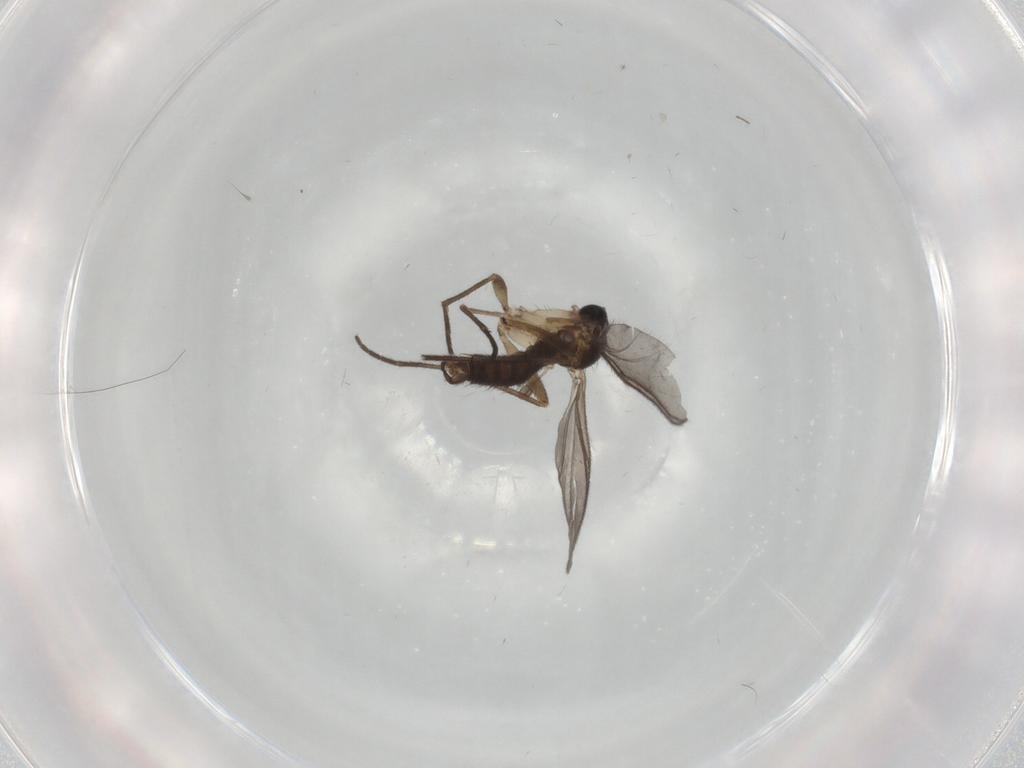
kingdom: Animalia
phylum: Arthropoda
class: Insecta
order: Diptera
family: Sciaridae
